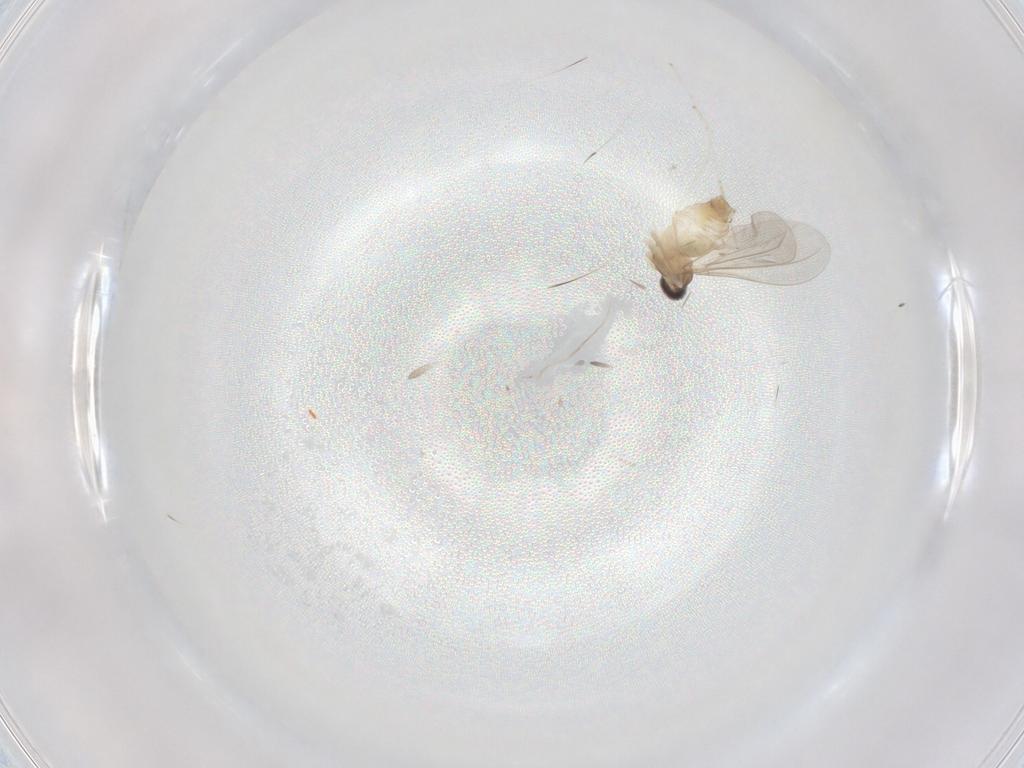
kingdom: Animalia
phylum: Arthropoda
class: Insecta
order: Diptera
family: Cecidomyiidae
